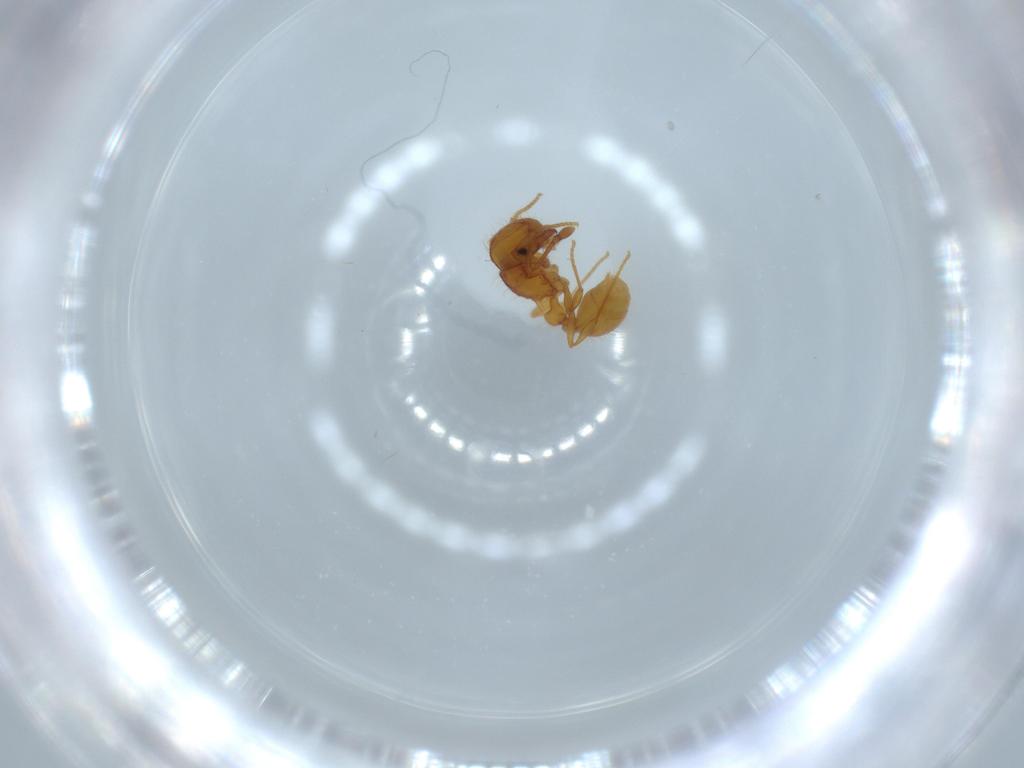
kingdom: Animalia
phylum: Arthropoda
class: Insecta
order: Hymenoptera
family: Formicidae
